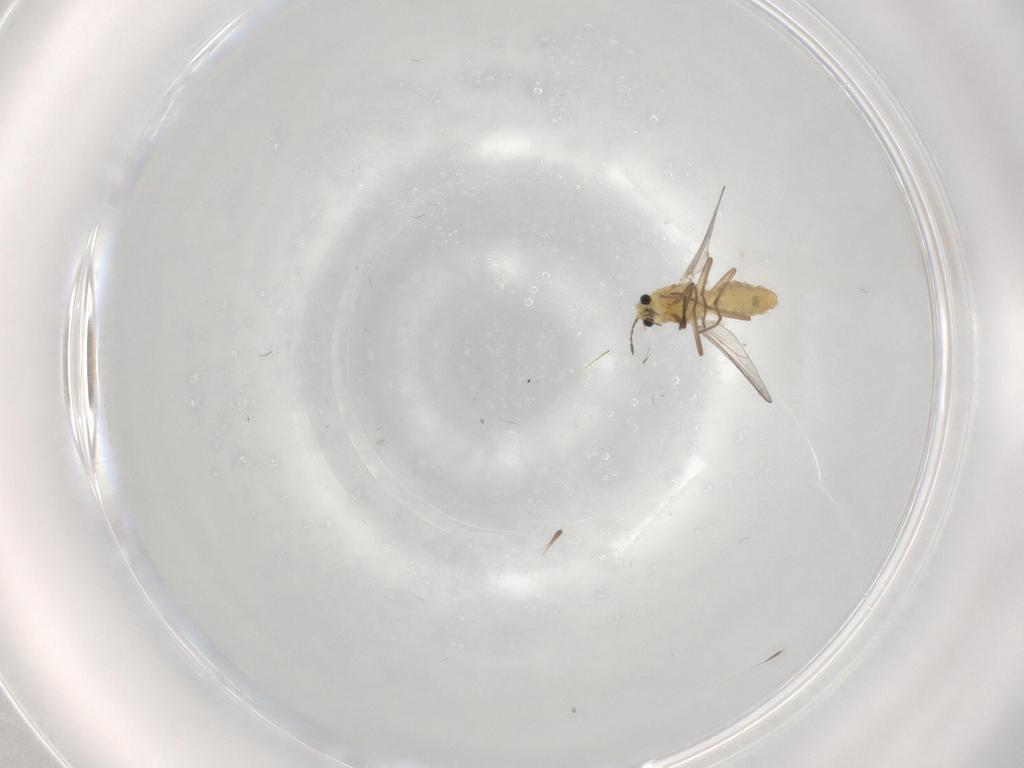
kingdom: Animalia
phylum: Arthropoda
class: Insecta
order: Diptera
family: Chironomidae
